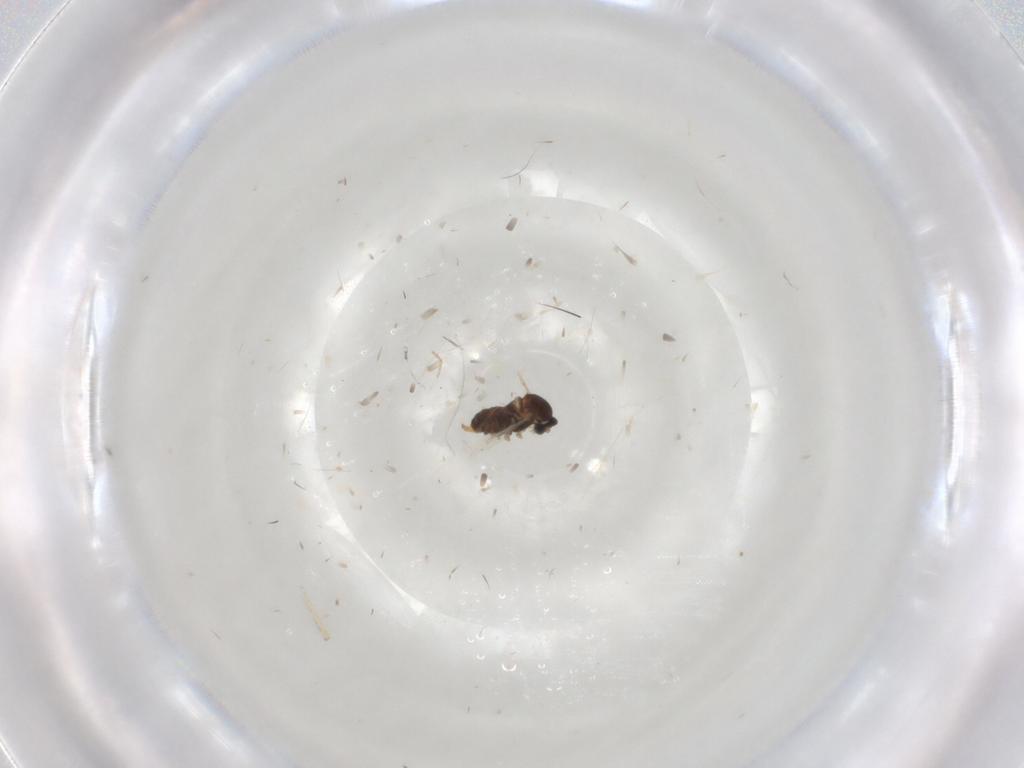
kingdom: Animalia
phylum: Arthropoda
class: Insecta
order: Diptera
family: Cecidomyiidae
